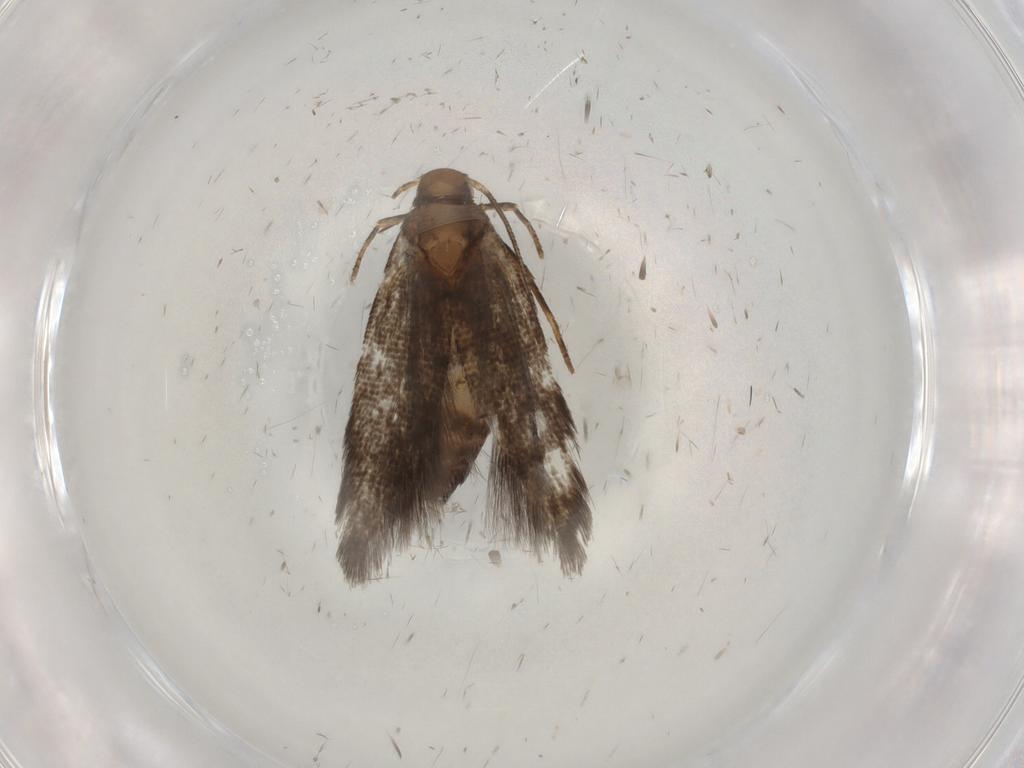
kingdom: Animalia
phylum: Arthropoda
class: Insecta
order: Lepidoptera
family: Cosmopterigidae
